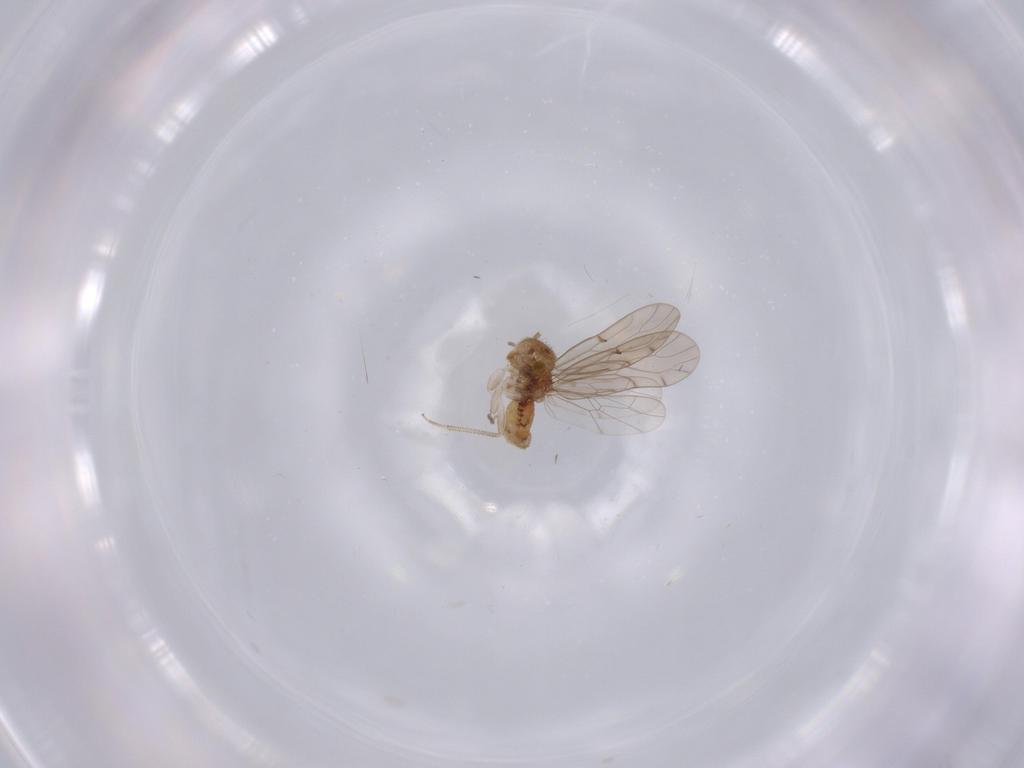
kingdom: Animalia
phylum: Arthropoda
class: Insecta
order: Psocodea
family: Ectopsocidae
